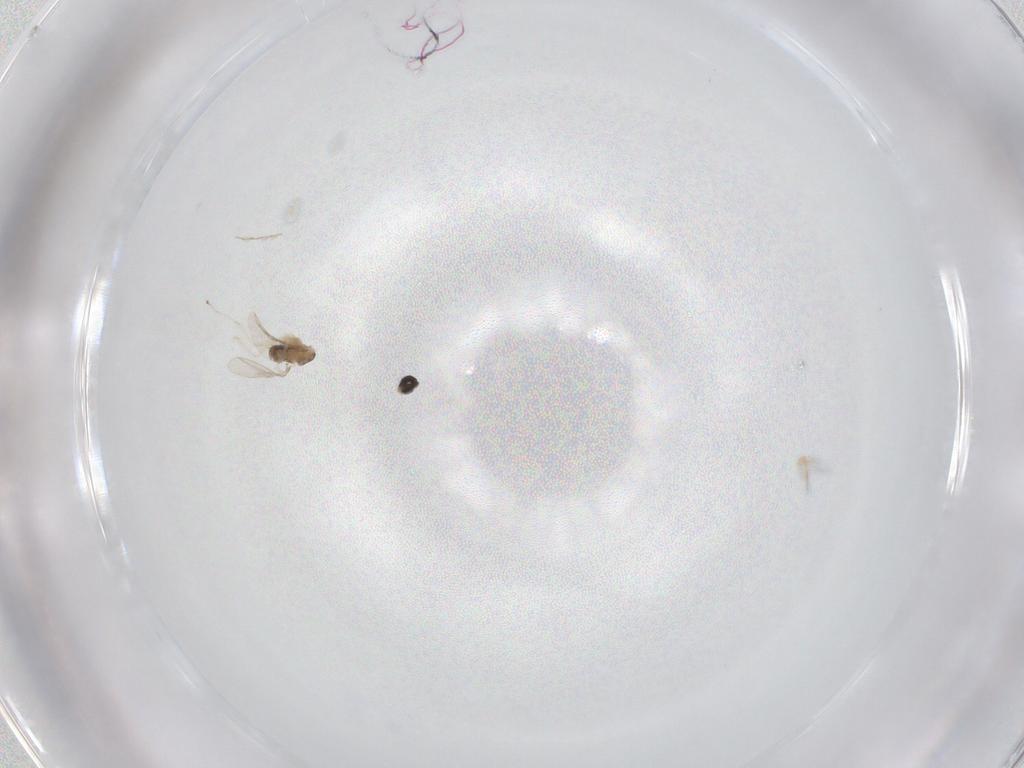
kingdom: Animalia
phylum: Arthropoda
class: Insecta
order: Diptera
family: Cecidomyiidae
